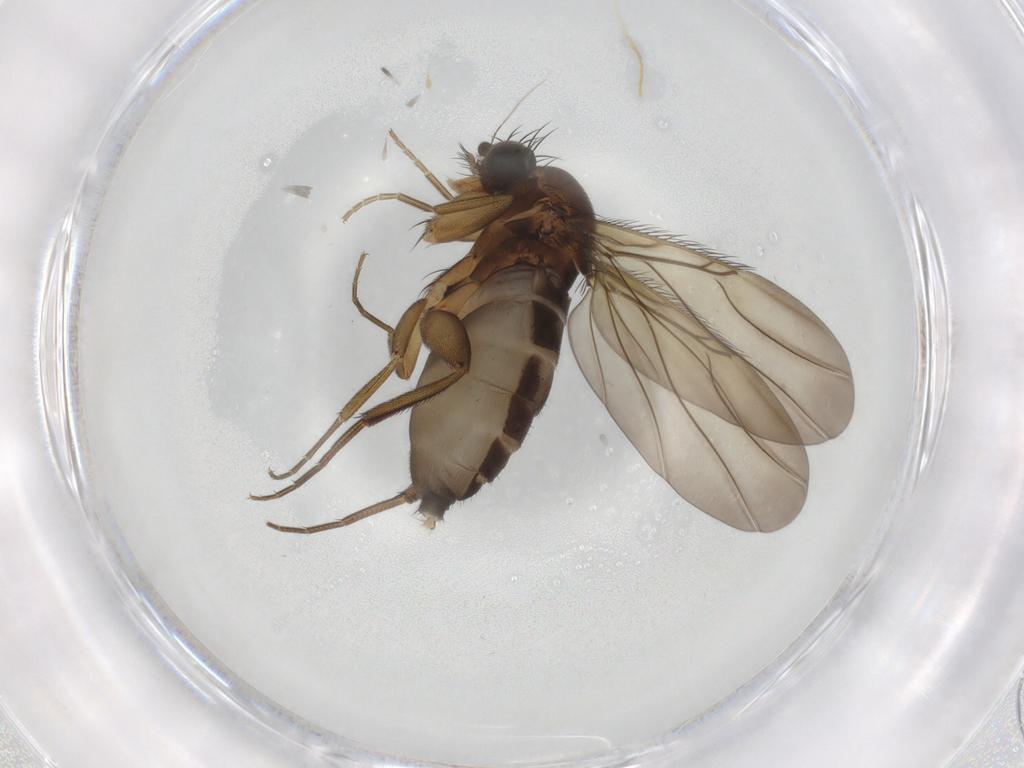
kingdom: Animalia
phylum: Arthropoda
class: Insecta
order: Diptera
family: Phoridae
